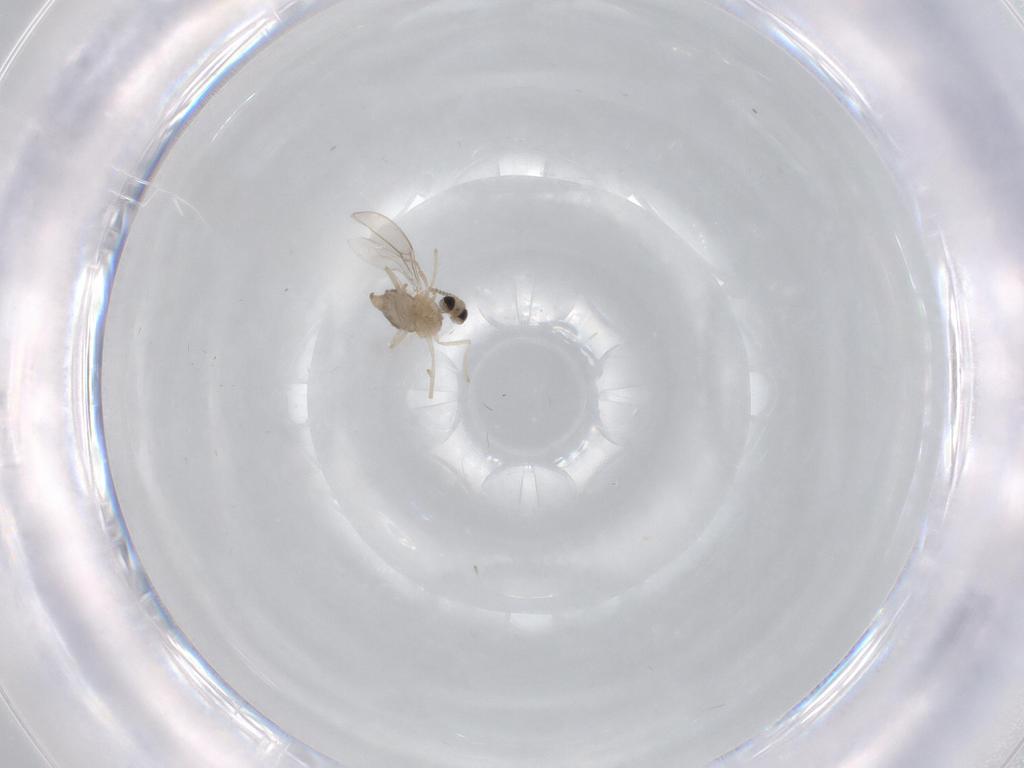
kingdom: Animalia
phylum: Arthropoda
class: Insecta
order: Diptera
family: Cecidomyiidae
